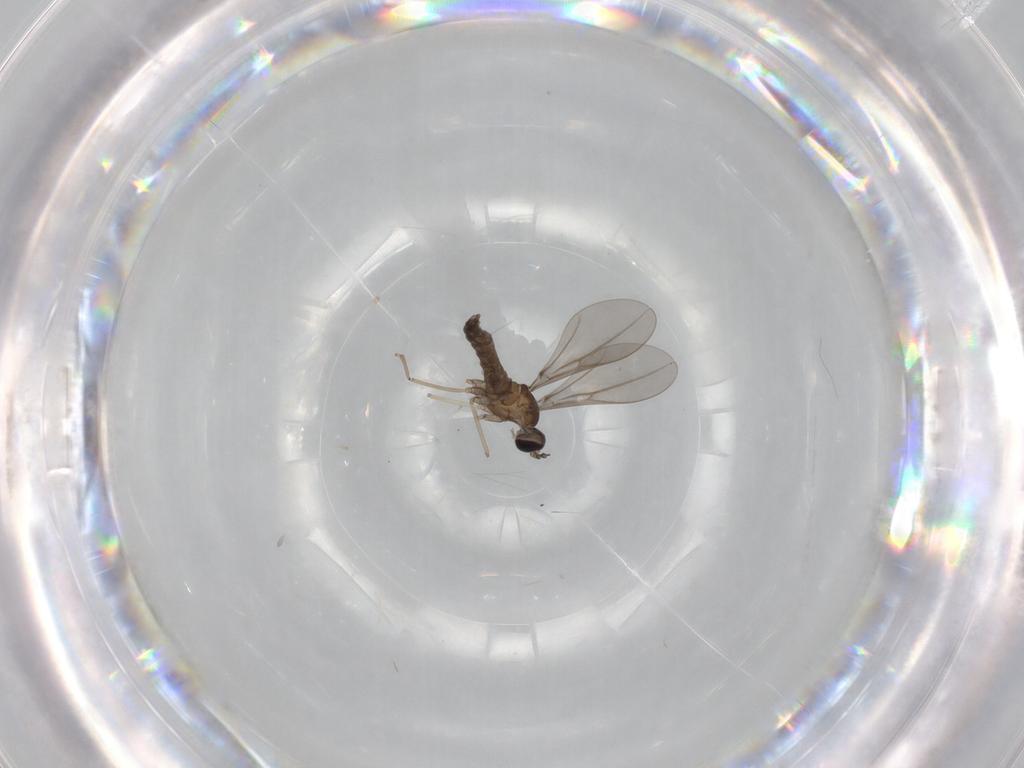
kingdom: Animalia
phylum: Arthropoda
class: Insecta
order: Diptera
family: Cecidomyiidae
